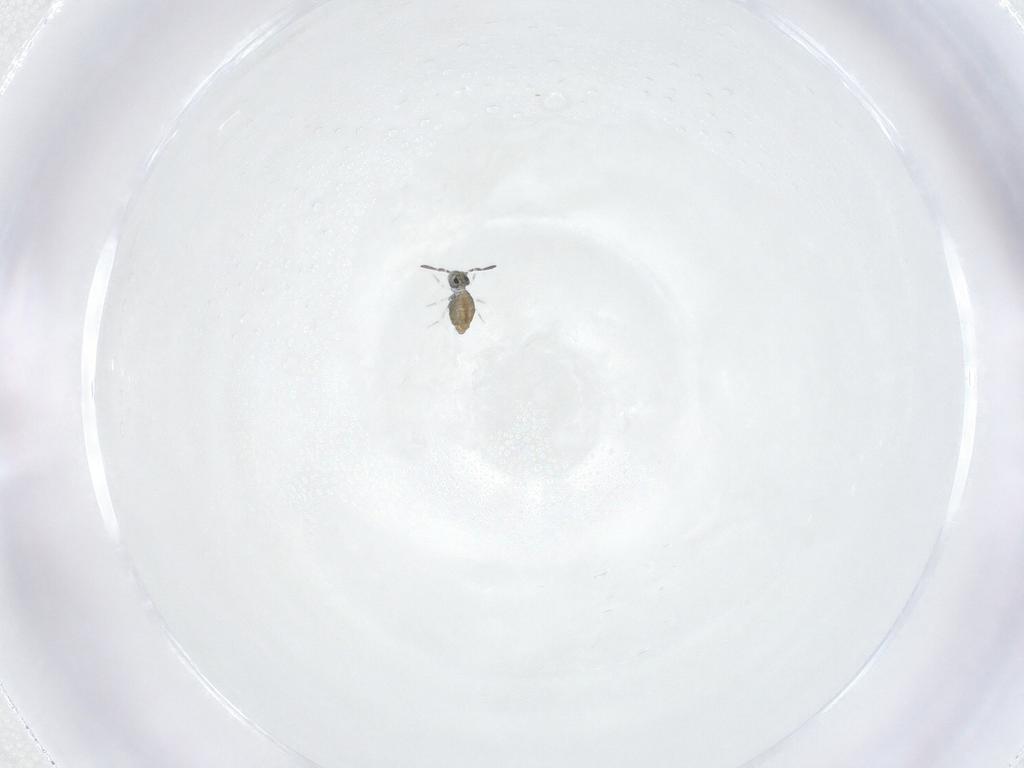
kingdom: Animalia
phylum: Arthropoda
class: Collembola
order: Symphypleona
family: Katiannidae
